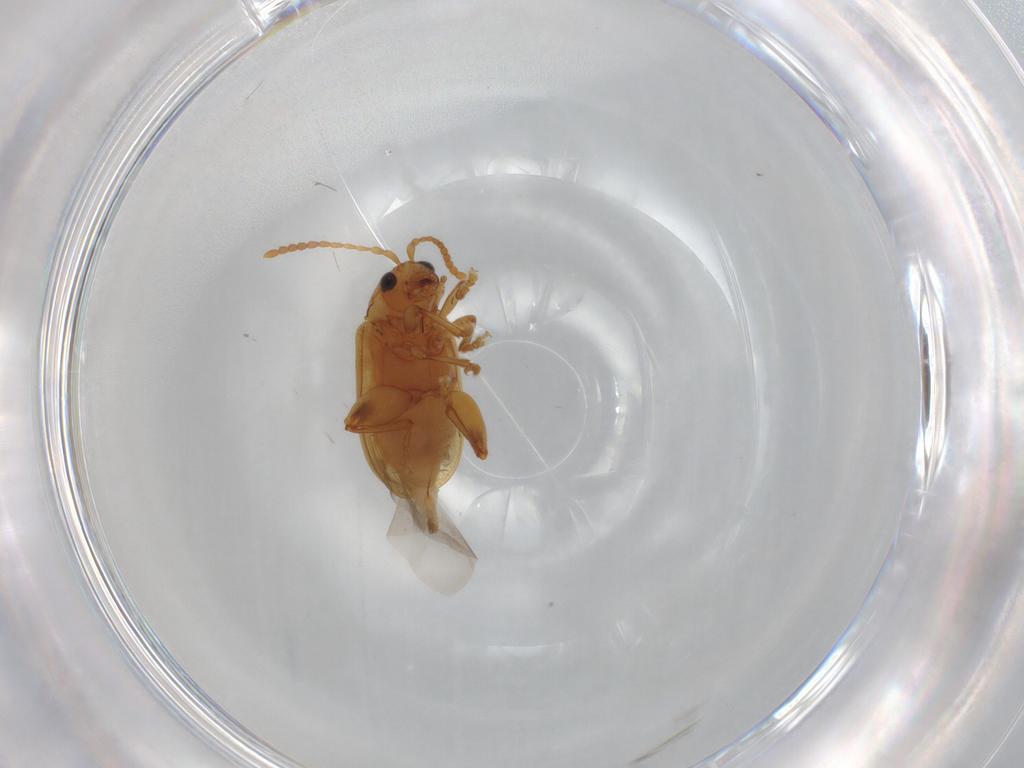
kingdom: Animalia
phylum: Arthropoda
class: Insecta
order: Coleoptera
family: Chrysomelidae
